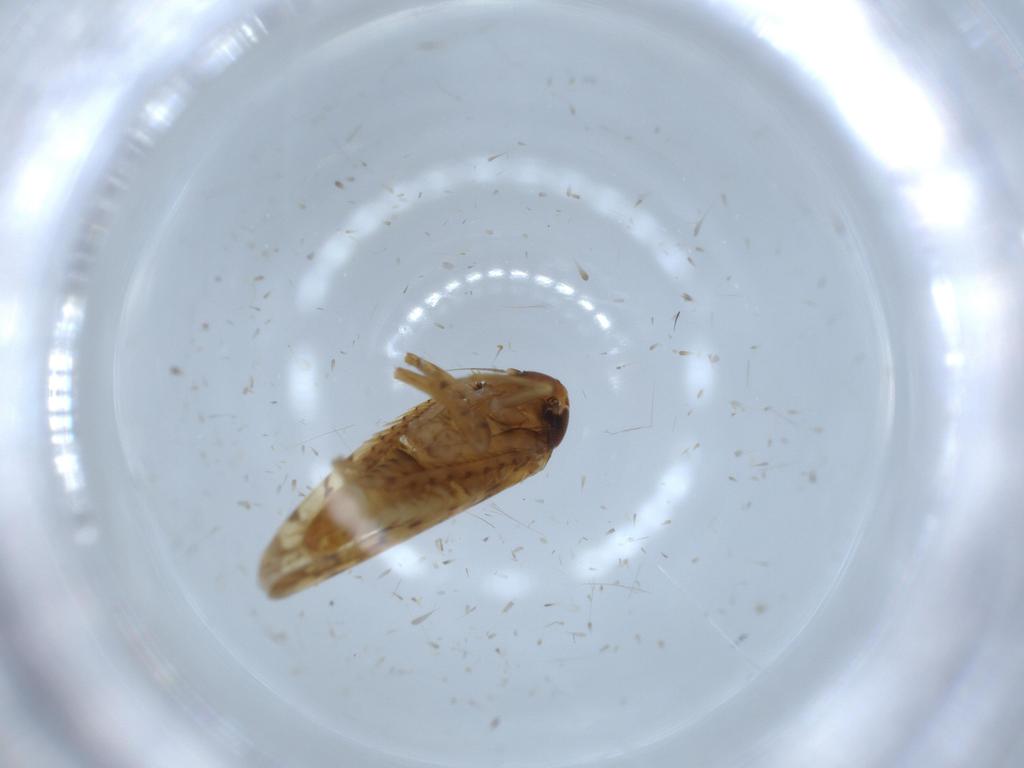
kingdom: Animalia
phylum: Arthropoda
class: Insecta
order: Hemiptera
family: Cicadellidae
